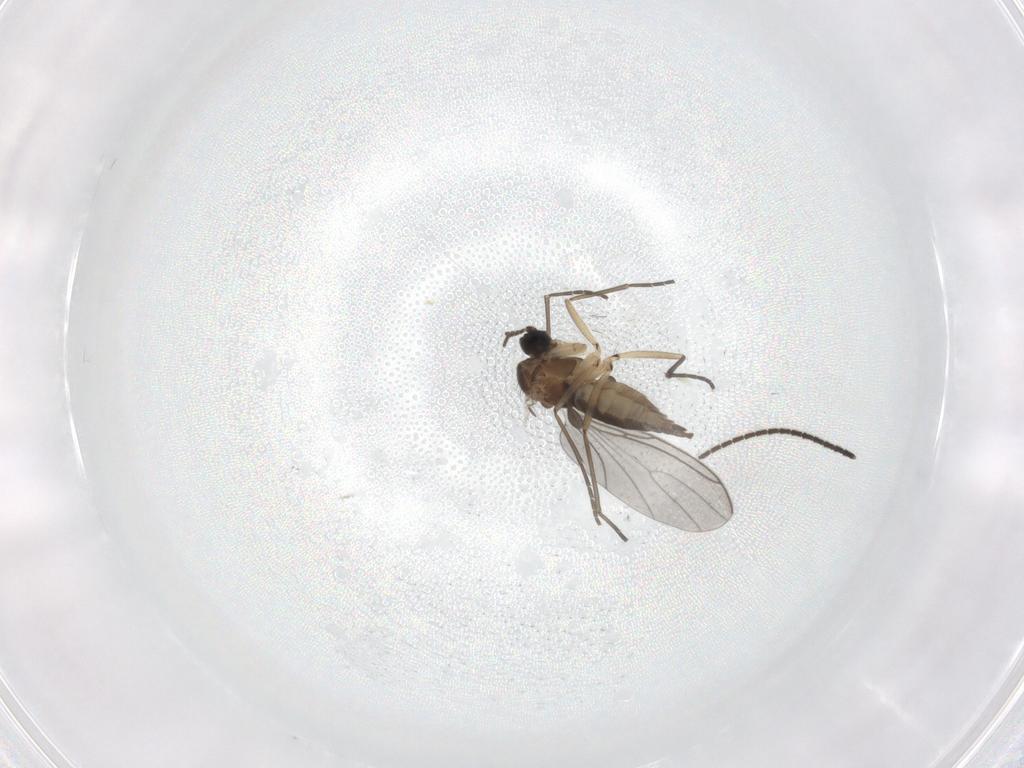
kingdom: Animalia
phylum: Arthropoda
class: Insecta
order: Diptera
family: Sciaridae
